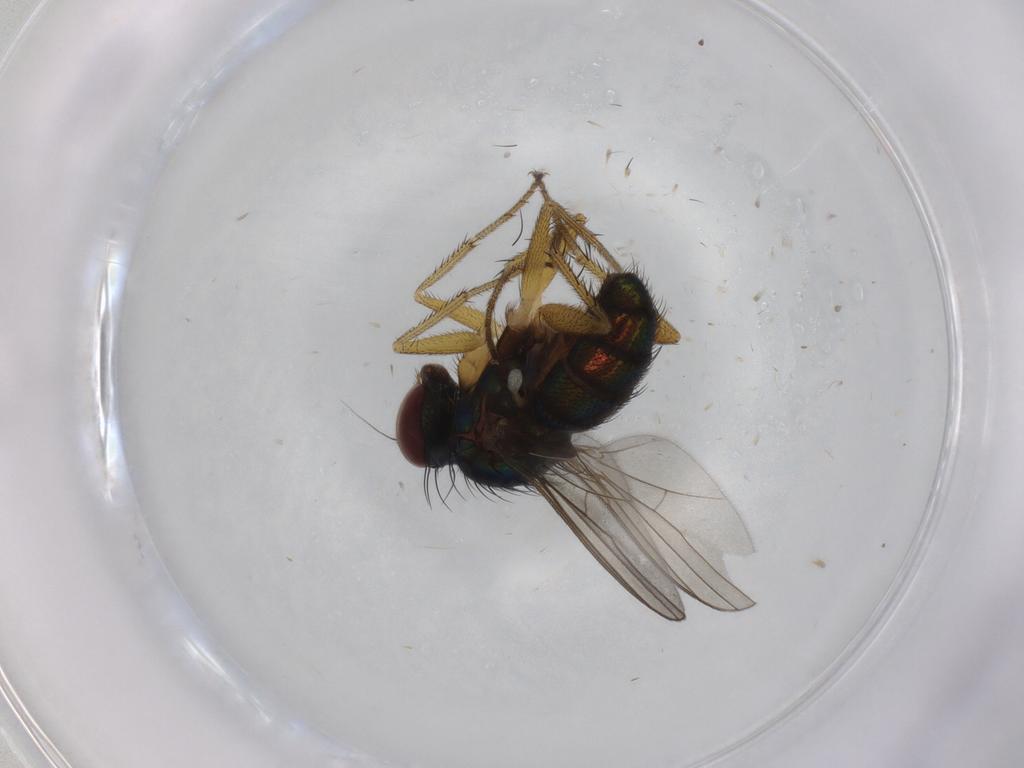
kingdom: Animalia
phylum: Arthropoda
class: Insecta
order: Diptera
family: Dolichopodidae
